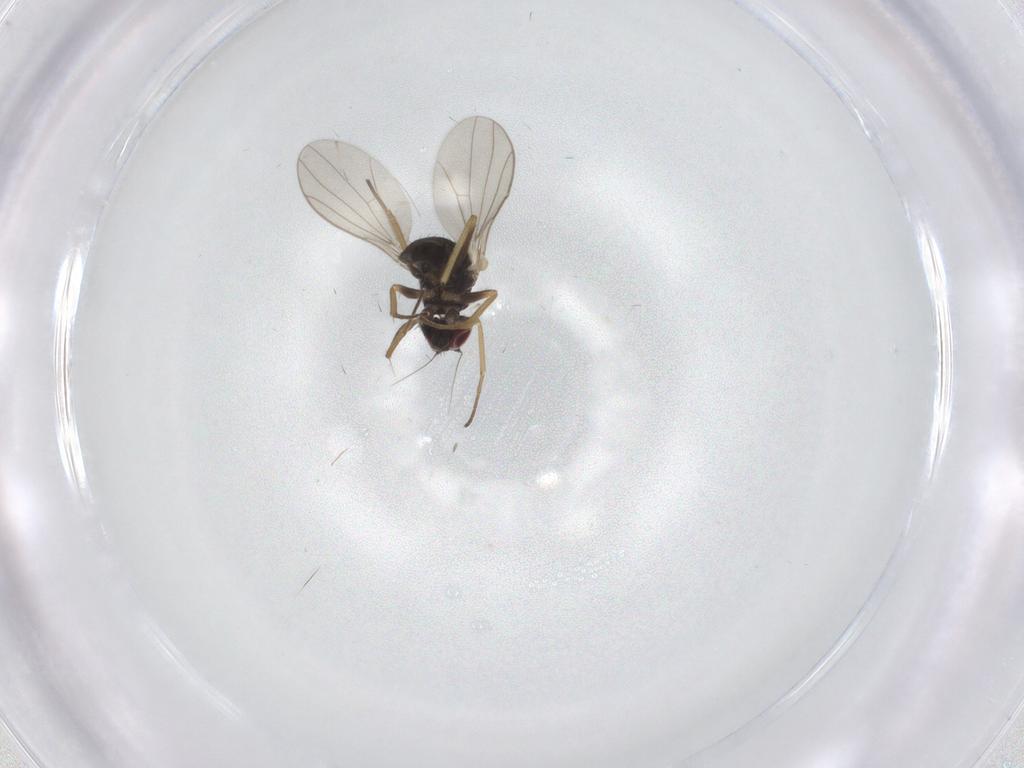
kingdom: Animalia
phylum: Arthropoda
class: Insecta
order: Diptera
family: Dolichopodidae
